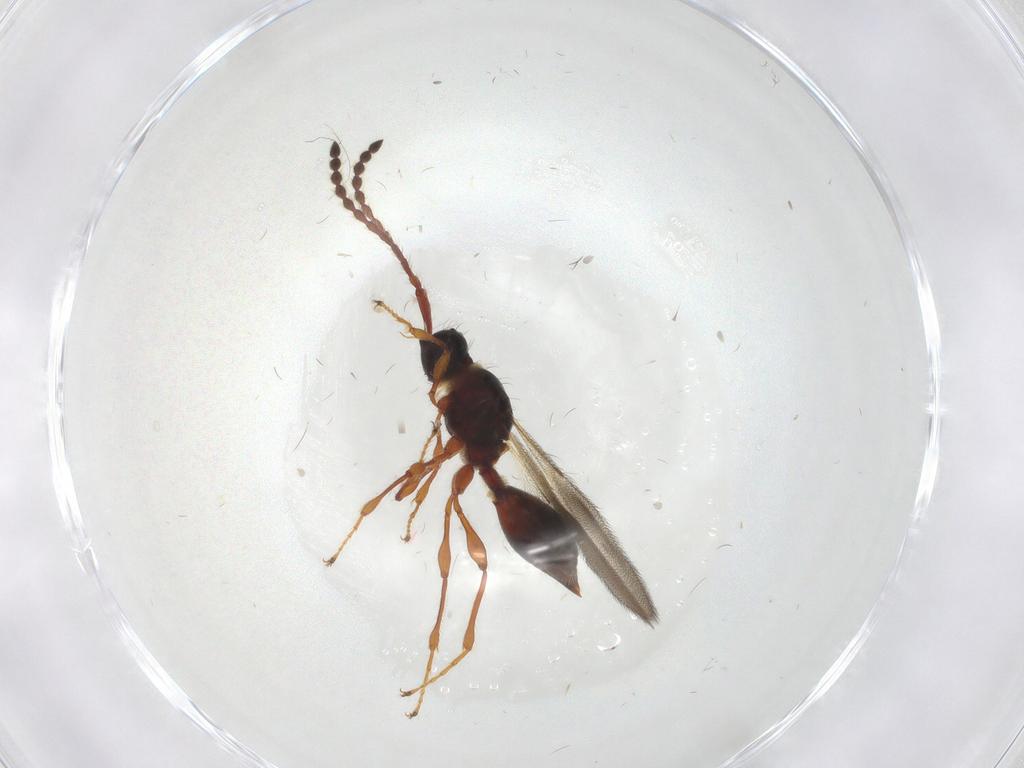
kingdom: Animalia
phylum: Arthropoda
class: Insecta
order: Hymenoptera
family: Diapriidae
